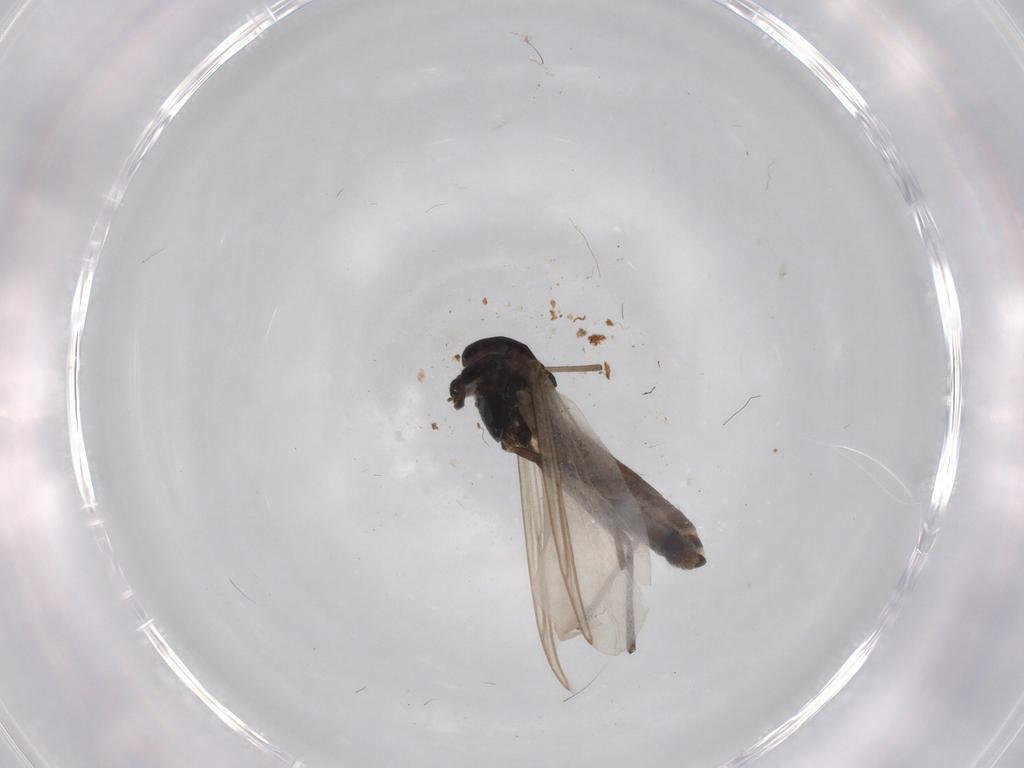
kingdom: Animalia
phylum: Arthropoda
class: Insecta
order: Diptera
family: Chironomidae
